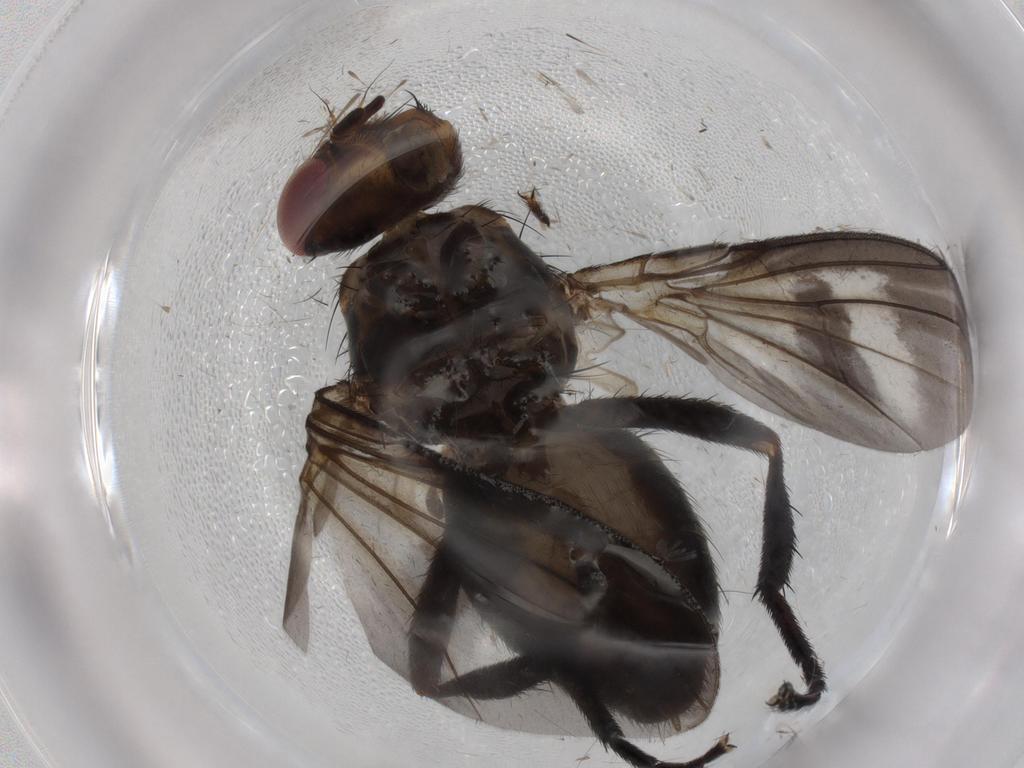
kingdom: Animalia
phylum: Arthropoda
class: Insecta
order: Diptera
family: Calliphoridae
